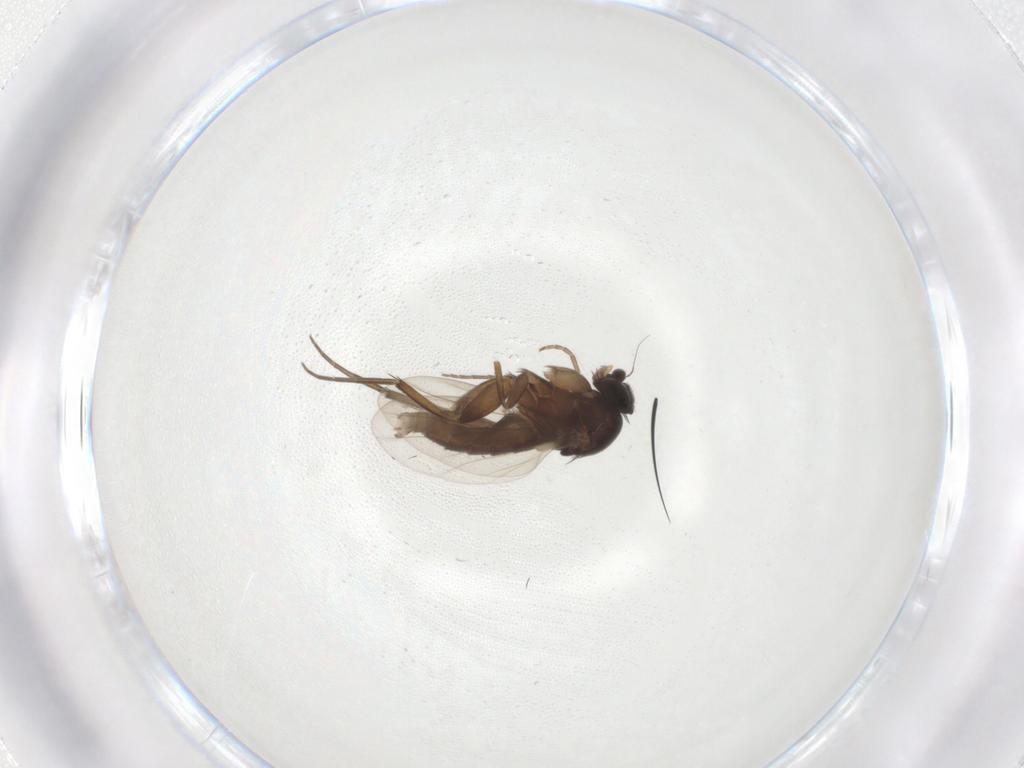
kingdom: Animalia
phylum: Arthropoda
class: Insecta
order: Diptera
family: Phoridae
